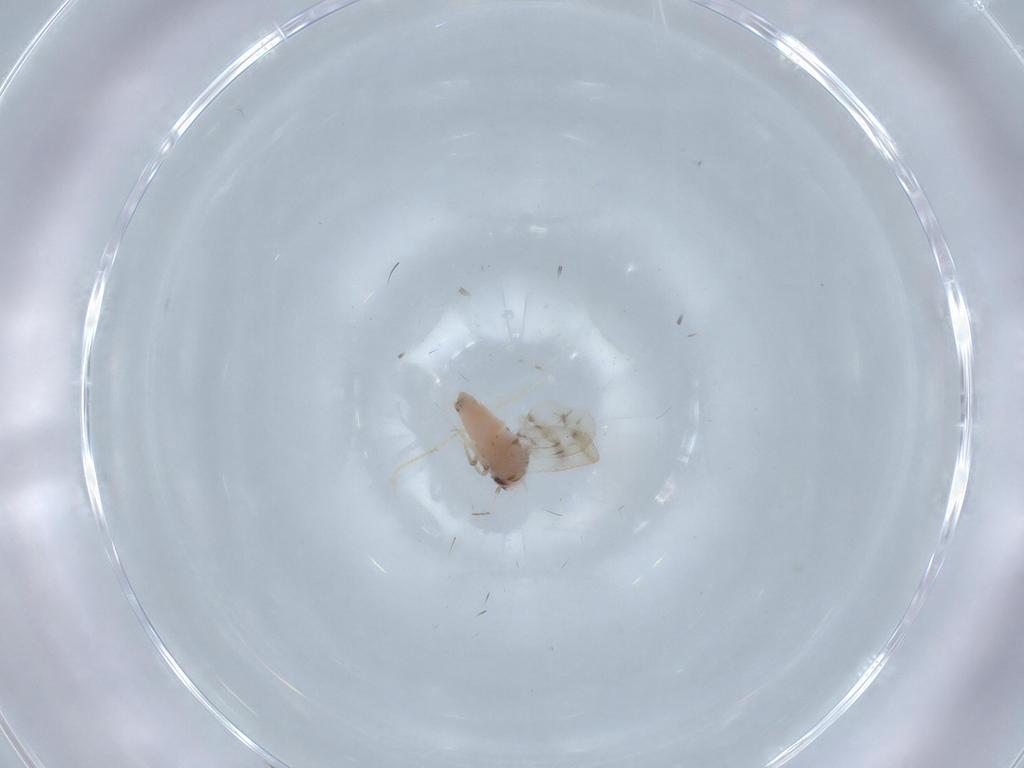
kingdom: Animalia
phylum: Arthropoda
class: Insecta
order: Diptera
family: Chironomidae
